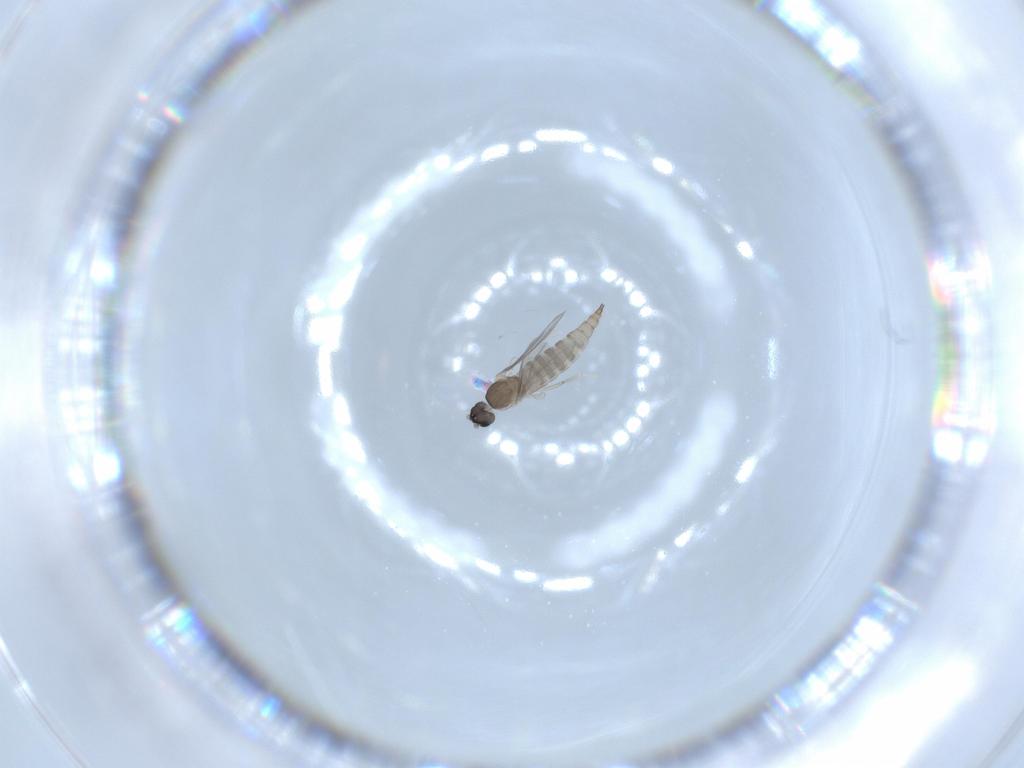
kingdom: Animalia
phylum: Arthropoda
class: Insecta
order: Diptera
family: Cecidomyiidae
